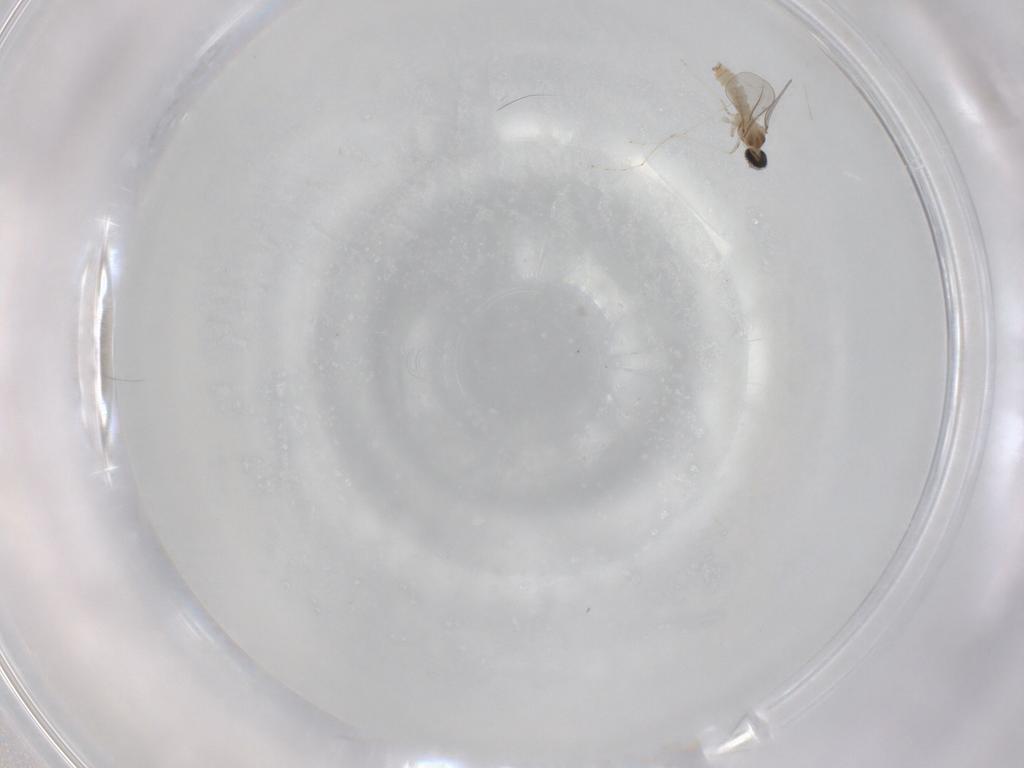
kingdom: Animalia
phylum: Arthropoda
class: Insecta
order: Diptera
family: Cecidomyiidae
